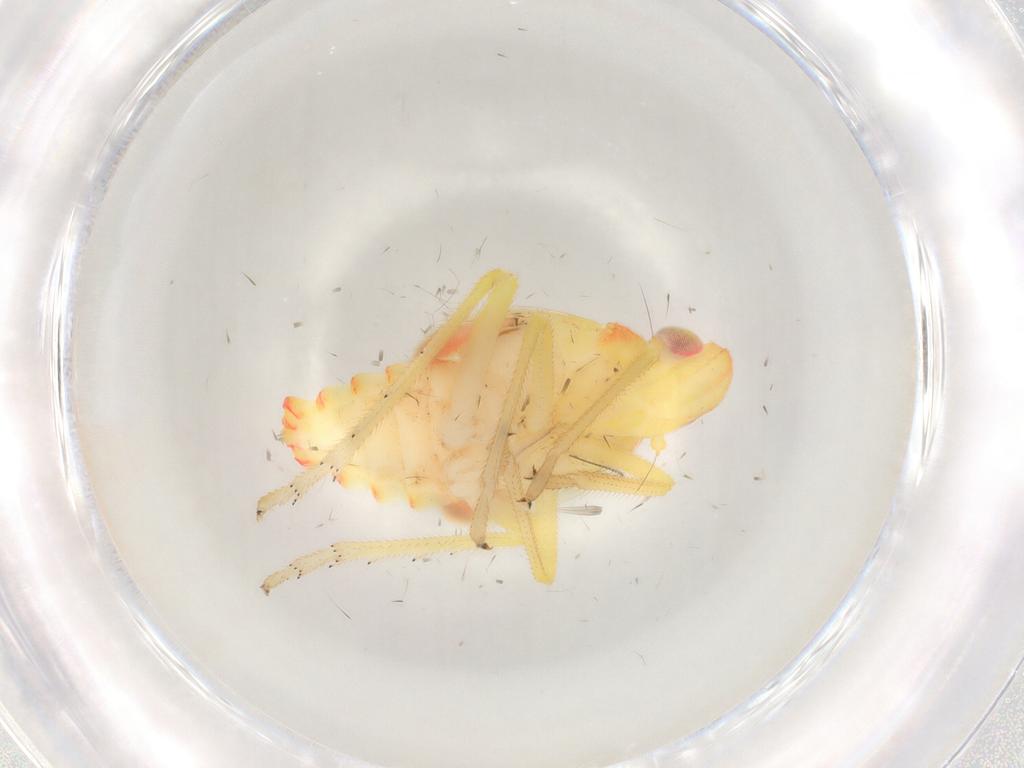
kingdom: Animalia
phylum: Arthropoda
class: Insecta
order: Hemiptera
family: Tropiduchidae
